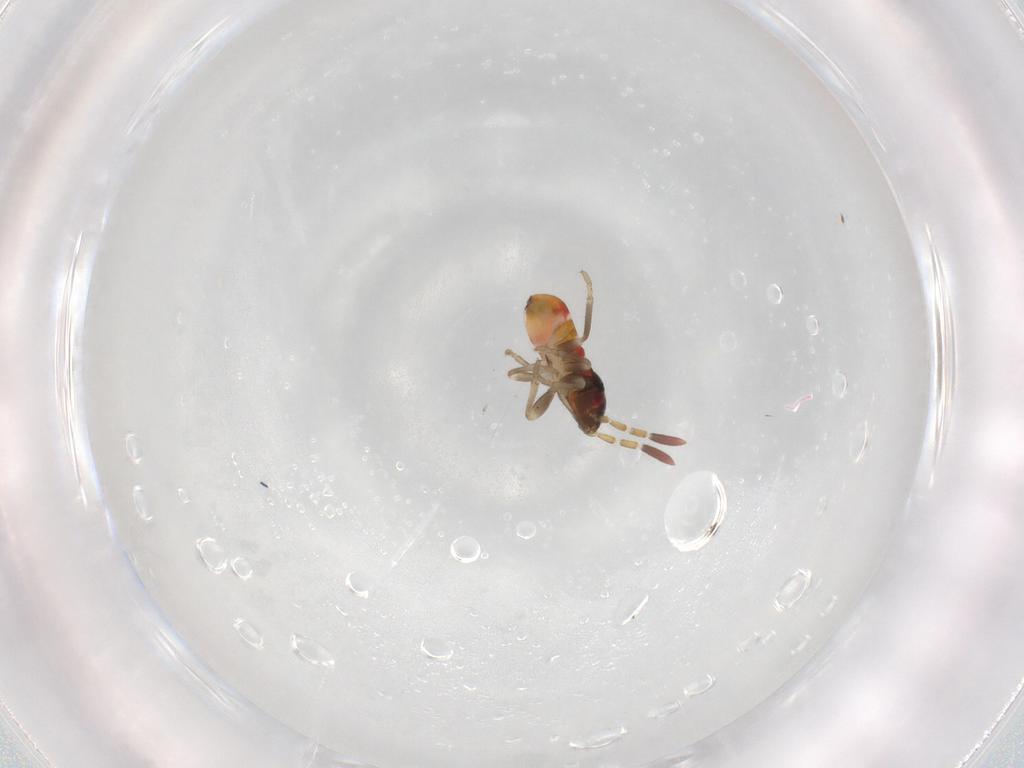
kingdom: Animalia
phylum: Arthropoda
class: Insecta
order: Hemiptera
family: Rhyparochromidae
